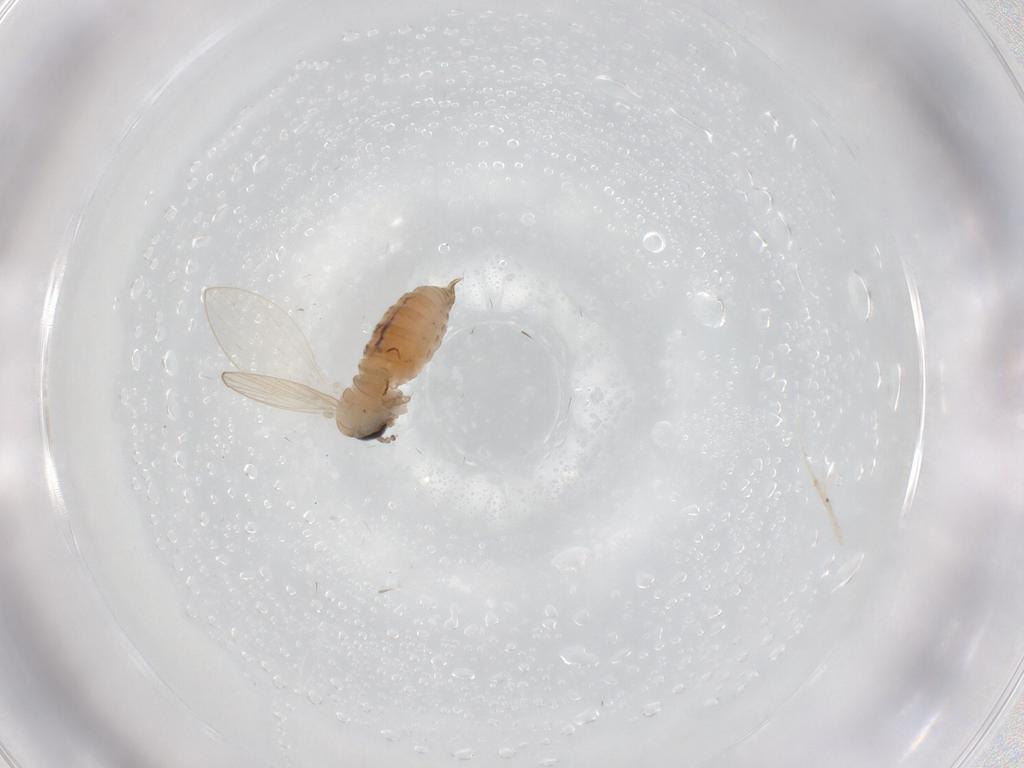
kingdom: Animalia
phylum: Arthropoda
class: Insecta
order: Diptera
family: Psychodidae
